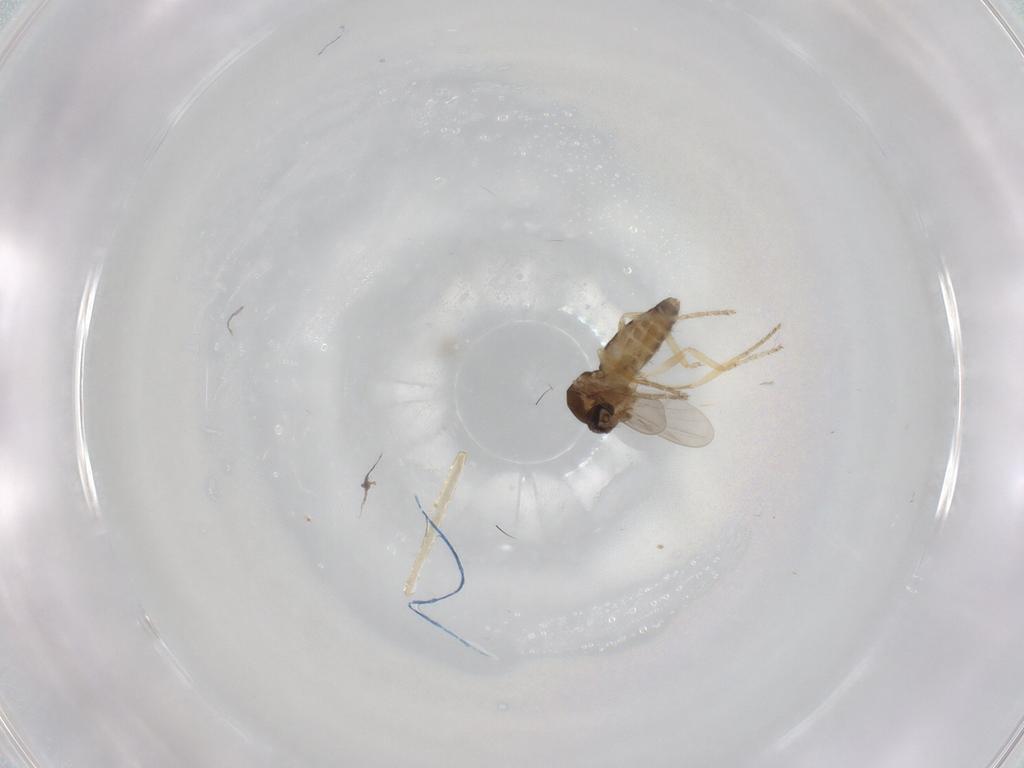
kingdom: Animalia
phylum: Arthropoda
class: Insecta
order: Diptera
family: Ceratopogonidae
